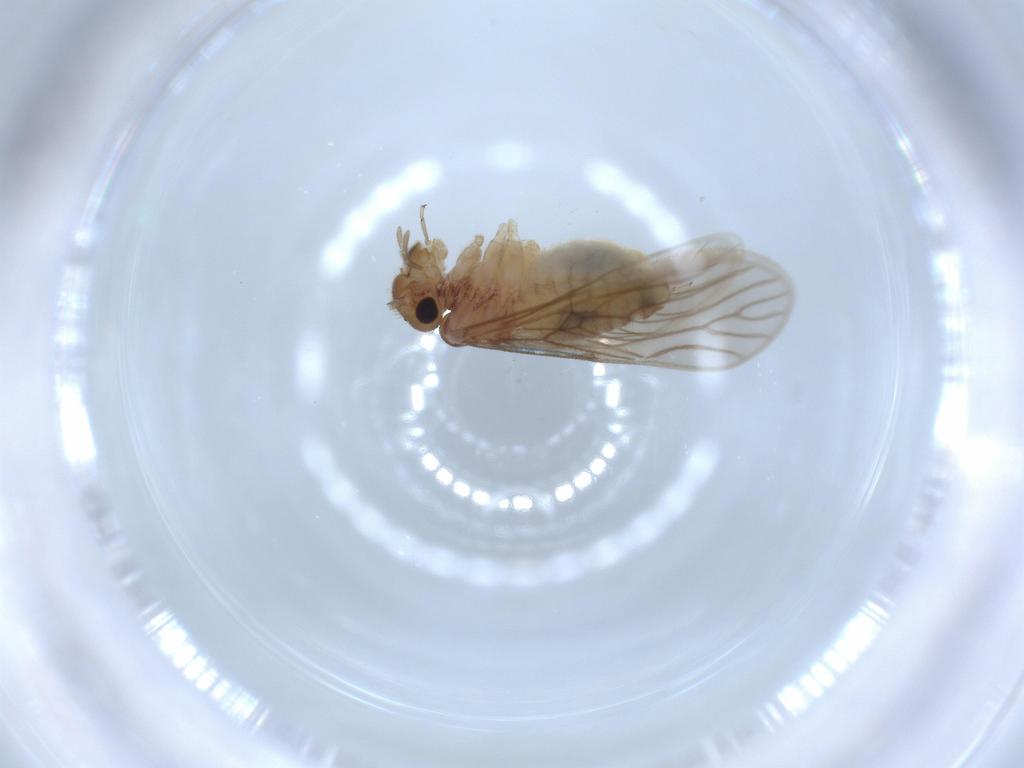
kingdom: Animalia
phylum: Arthropoda
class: Insecta
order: Psocodea
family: Cladiopsocidae
